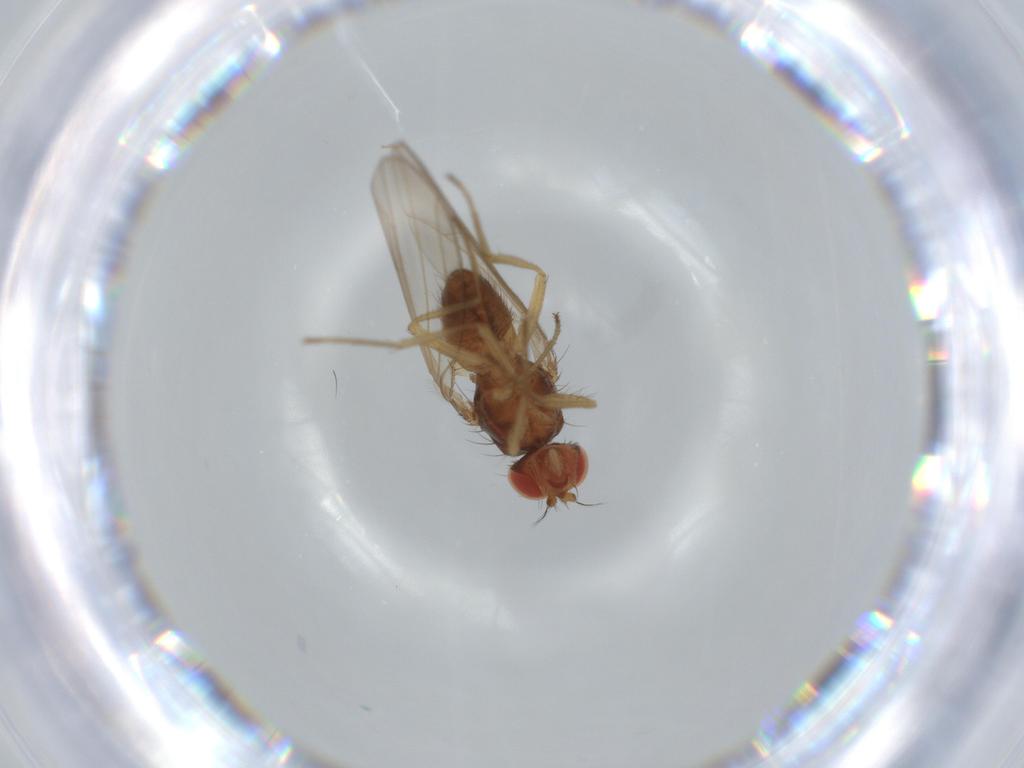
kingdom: Animalia
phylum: Arthropoda
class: Insecta
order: Diptera
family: Drosophilidae
